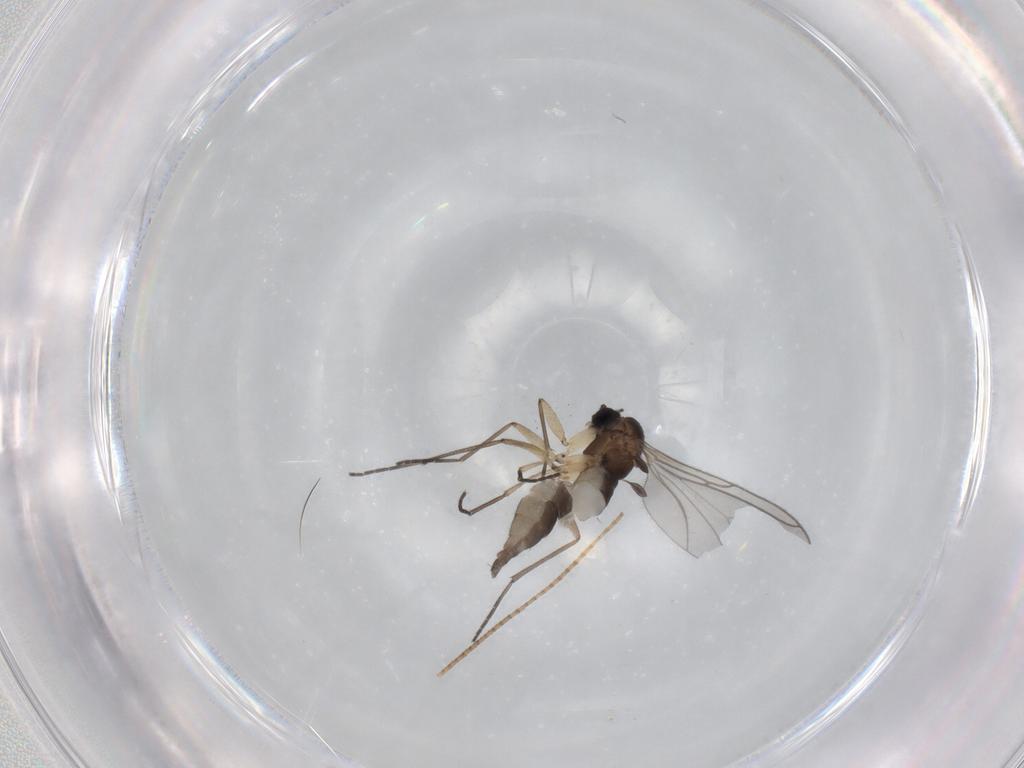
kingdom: Animalia
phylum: Arthropoda
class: Insecta
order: Diptera
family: Sciaridae
